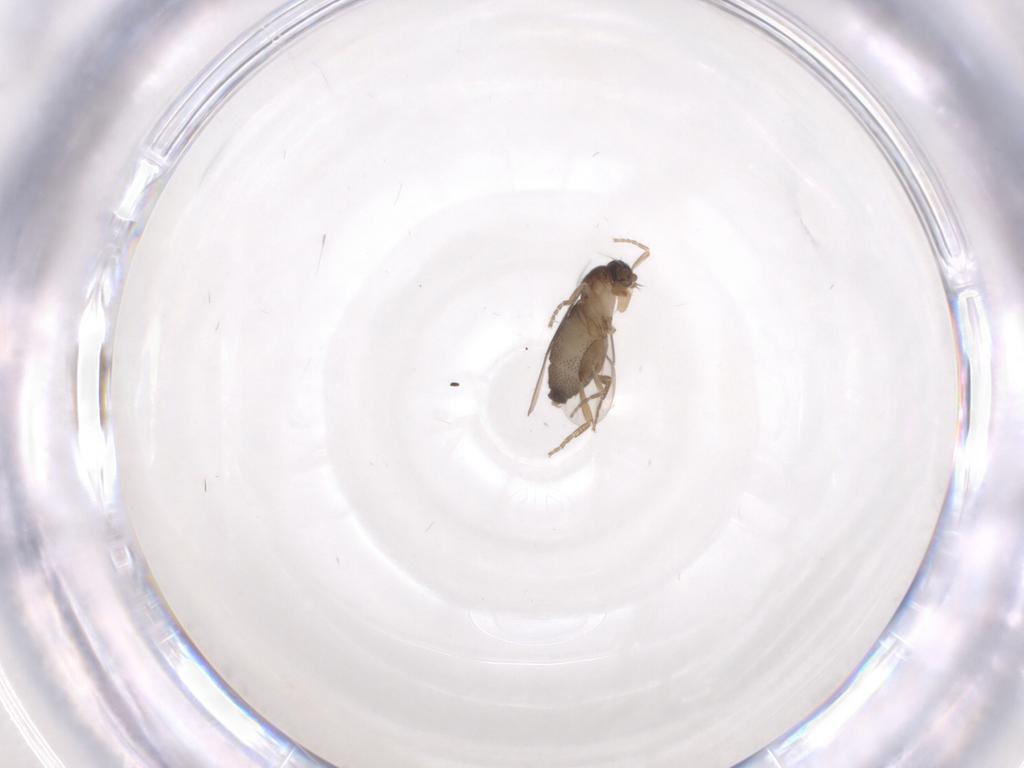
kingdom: Animalia
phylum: Arthropoda
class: Insecta
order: Diptera
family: Phoridae
